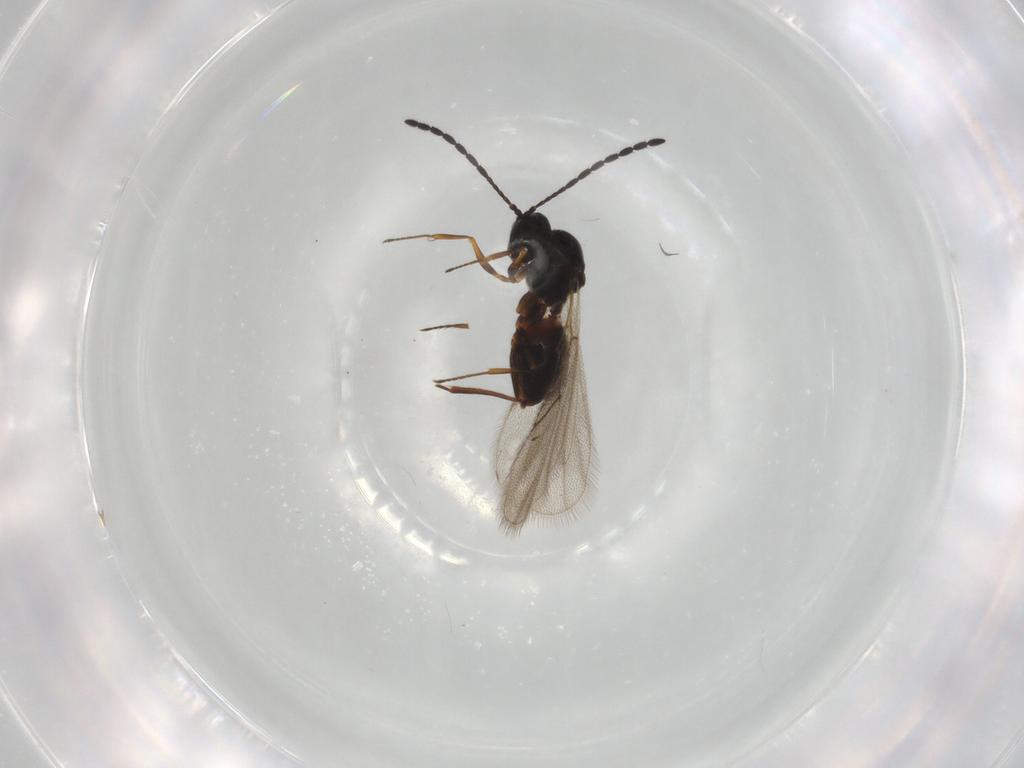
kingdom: Animalia
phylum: Arthropoda
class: Insecta
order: Hymenoptera
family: Figitidae
